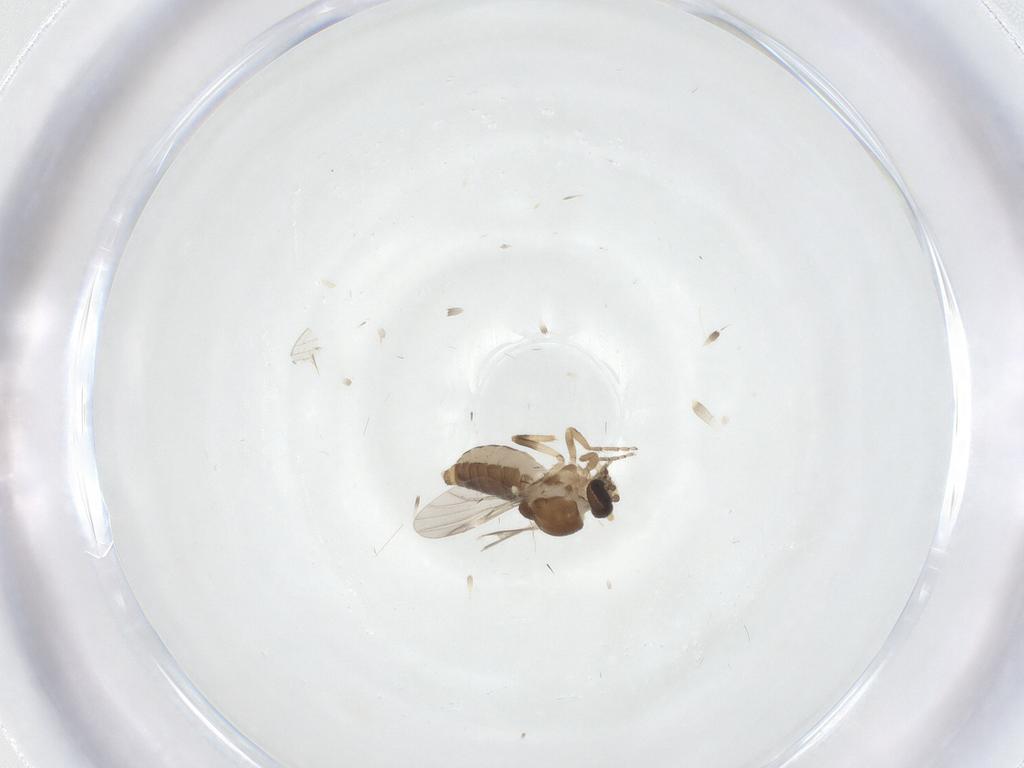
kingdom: Animalia
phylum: Arthropoda
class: Insecta
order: Diptera
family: Ceratopogonidae
